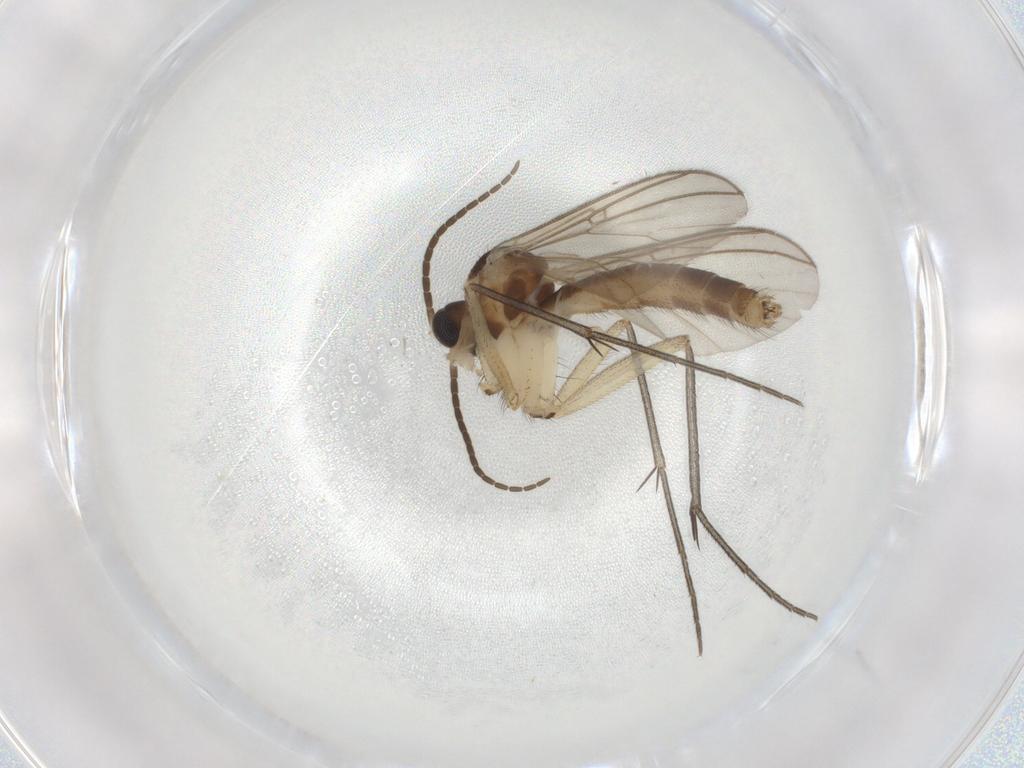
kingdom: Animalia
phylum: Arthropoda
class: Insecta
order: Diptera
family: Cecidomyiidae
